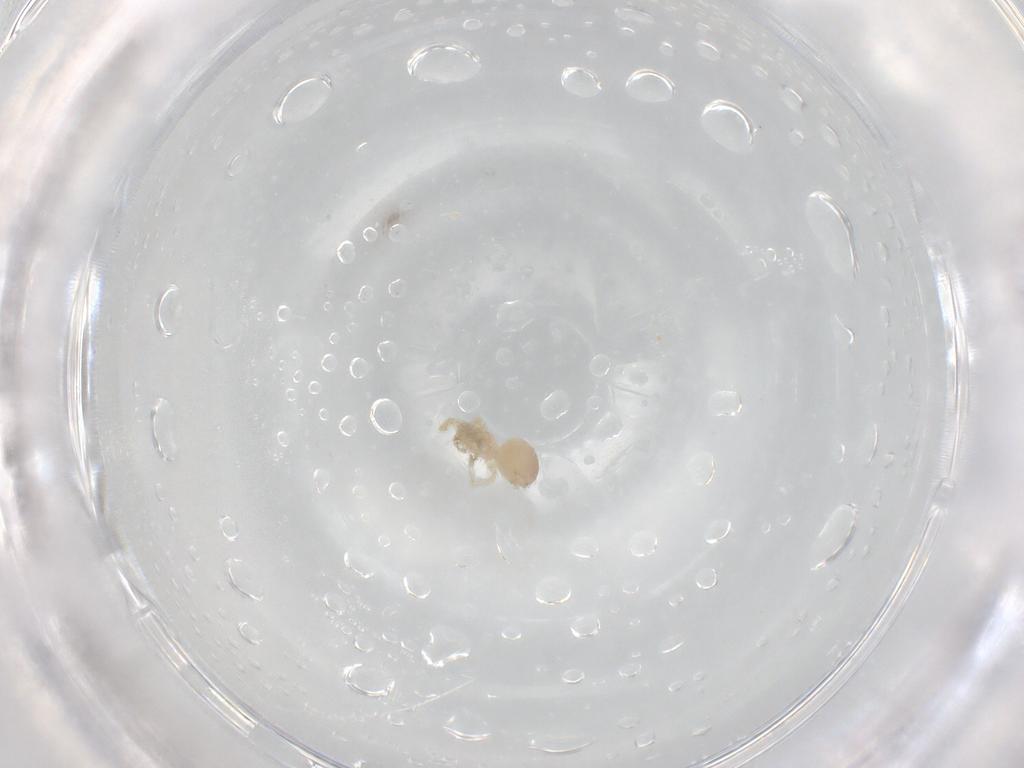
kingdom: Animalia
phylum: Arthropoda
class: Arachnida
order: Araneae
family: Dictynidae
